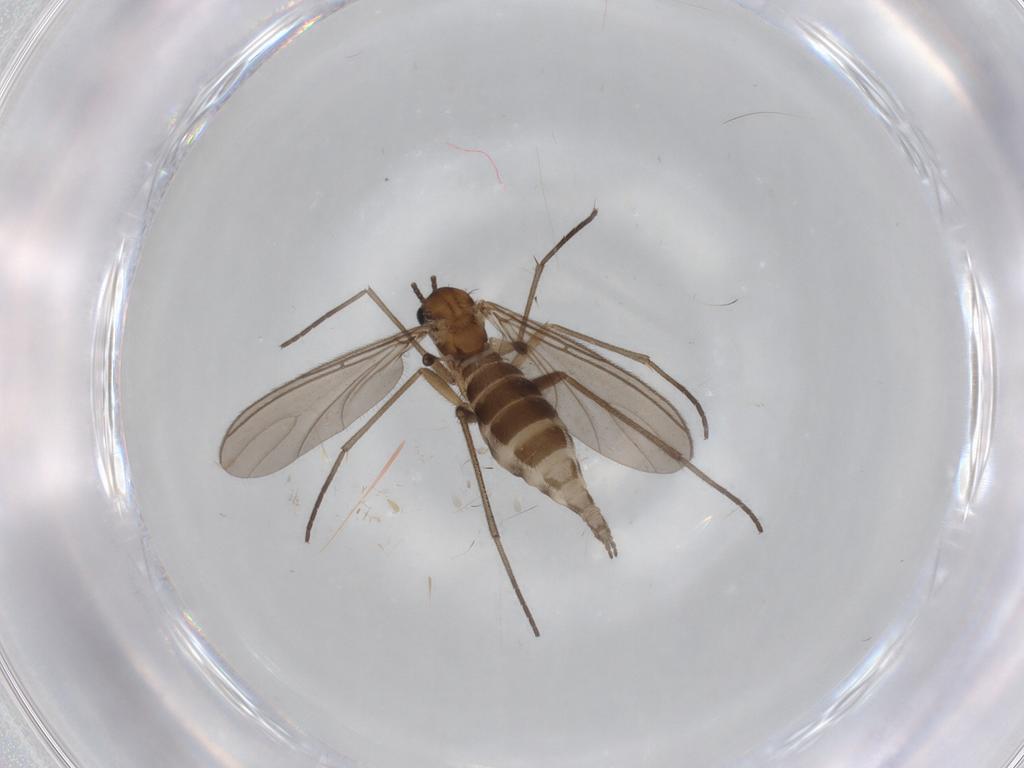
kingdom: Animalia
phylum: Arthropoda
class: Insecta
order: Diptera
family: Sciaridae
